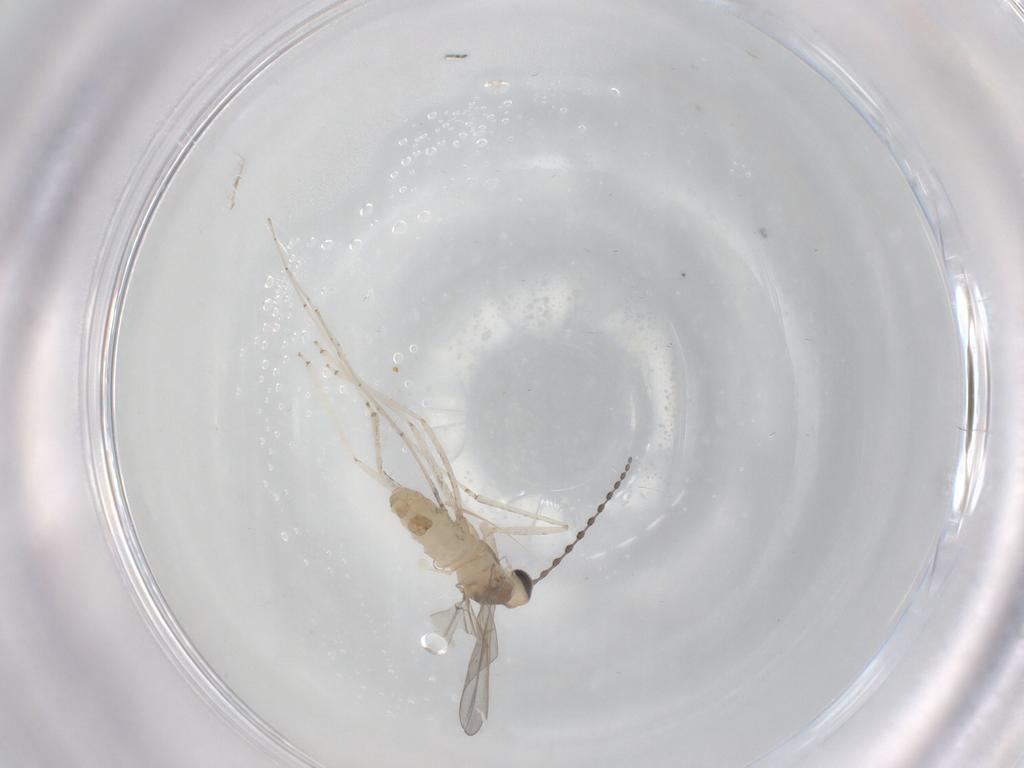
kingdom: Animalia
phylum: Arthropoda
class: Insecta
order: Diptera
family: Cecidomyiidae
